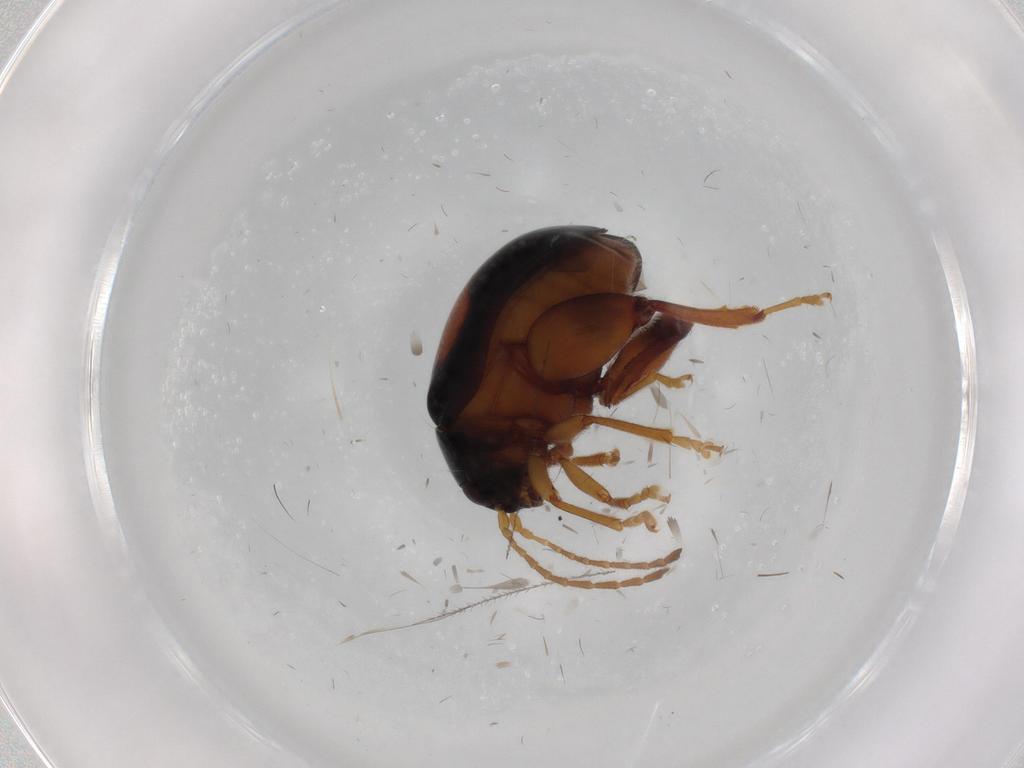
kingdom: Animalia
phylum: Arthropoda
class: Insecta
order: Coleoptera
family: Chrysomelidae
